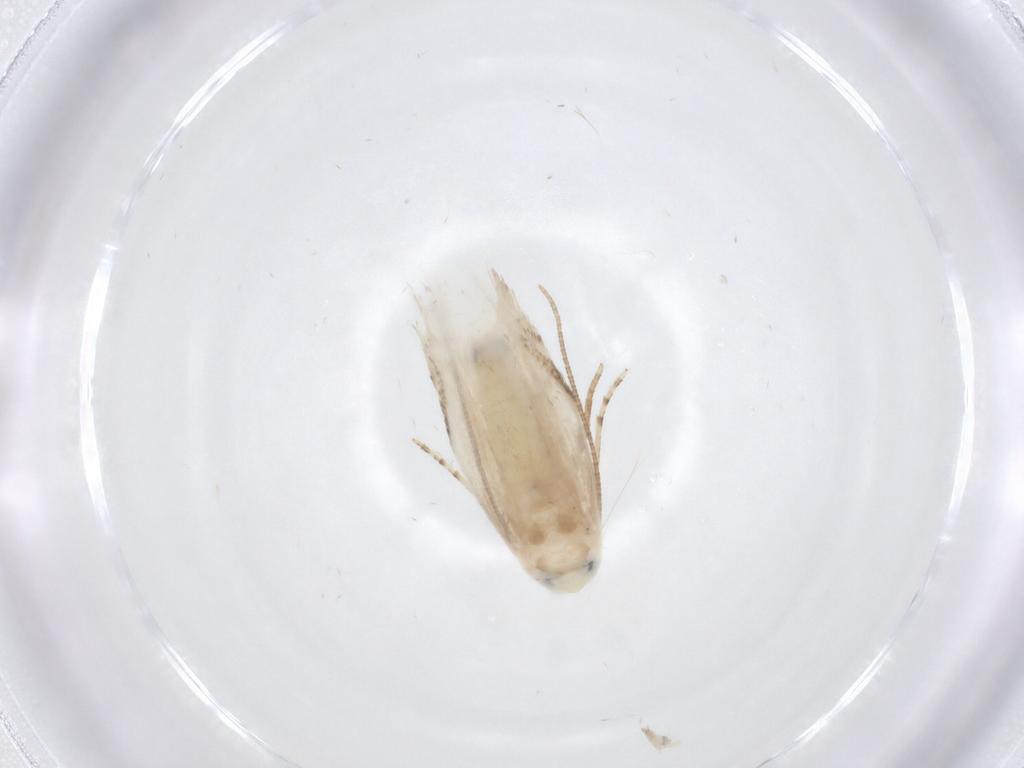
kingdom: Animalia
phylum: Arthropoda
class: Insecta
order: Lepidoptera
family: Lyonetiidae
